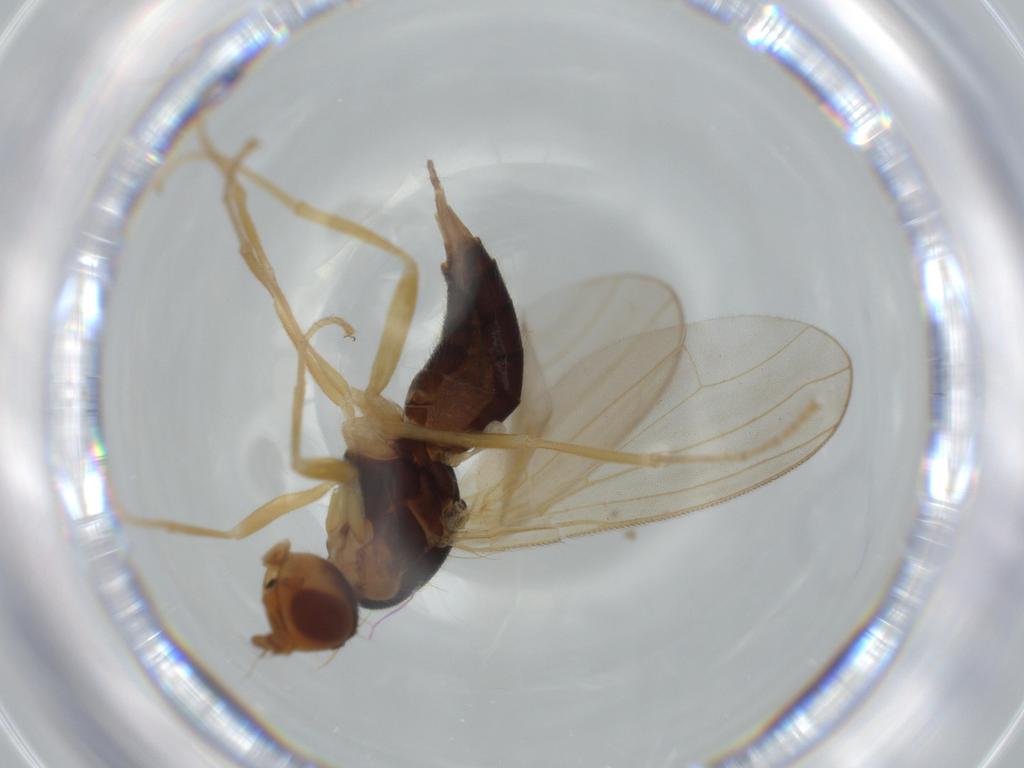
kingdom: Animalia
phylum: Arthropoda
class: Insecta
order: Diptera
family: Hybotidae
